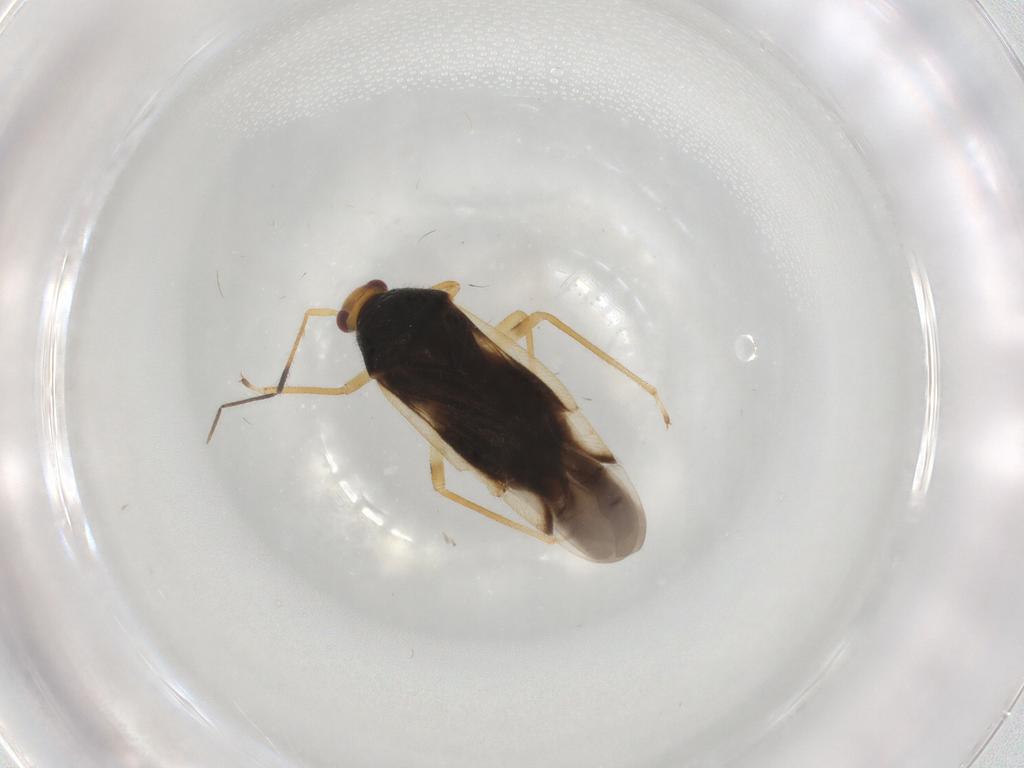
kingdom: Animalia
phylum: Arthropoda
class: Insecta
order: Hemiptera
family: Miridae
